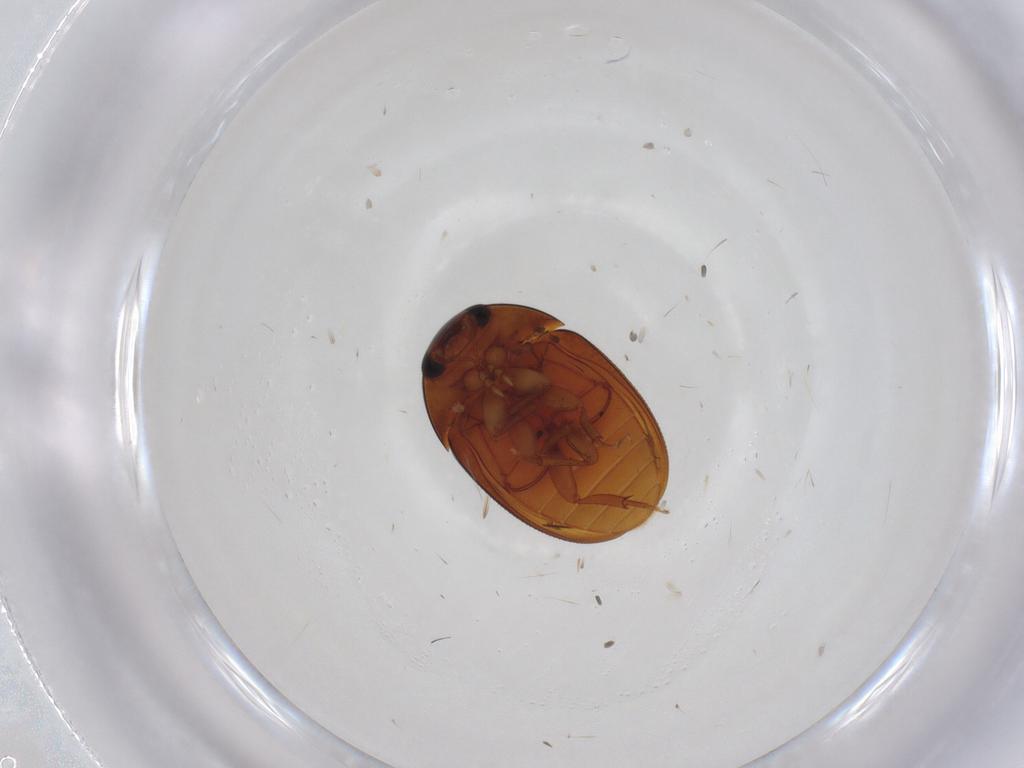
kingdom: Animalia
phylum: Arthropoda
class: Insecta
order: Coleoptera
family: Phalacridae
